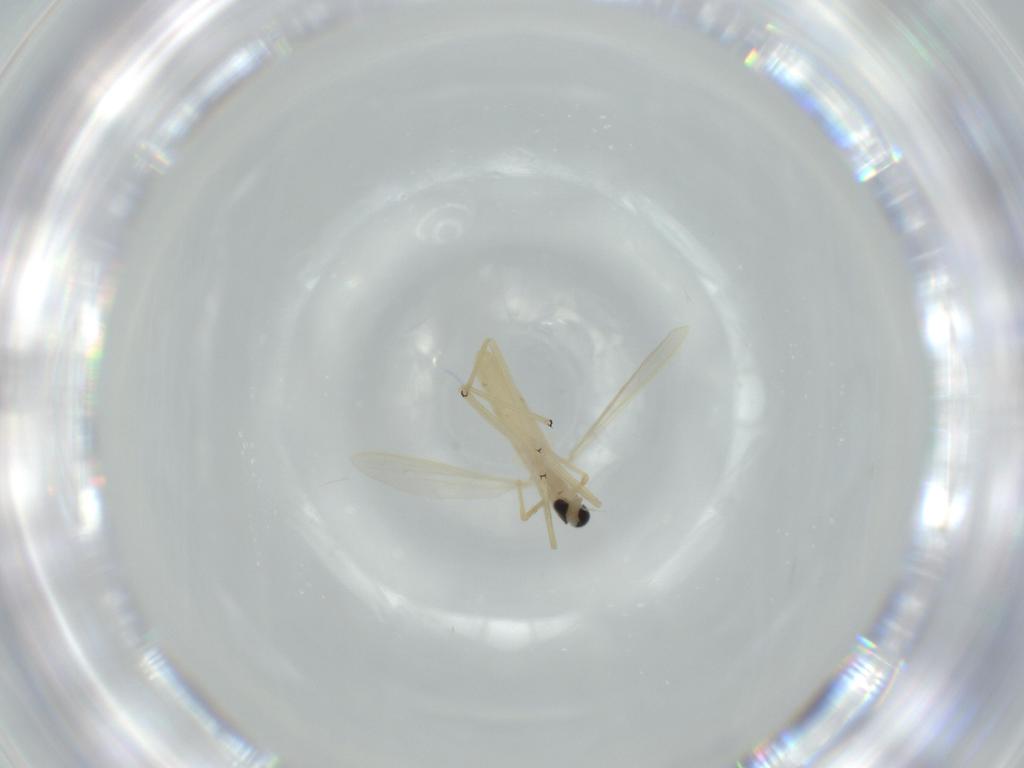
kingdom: Animalia
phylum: Arthropoda
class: Insecta
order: Diptera
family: Chironomidae
